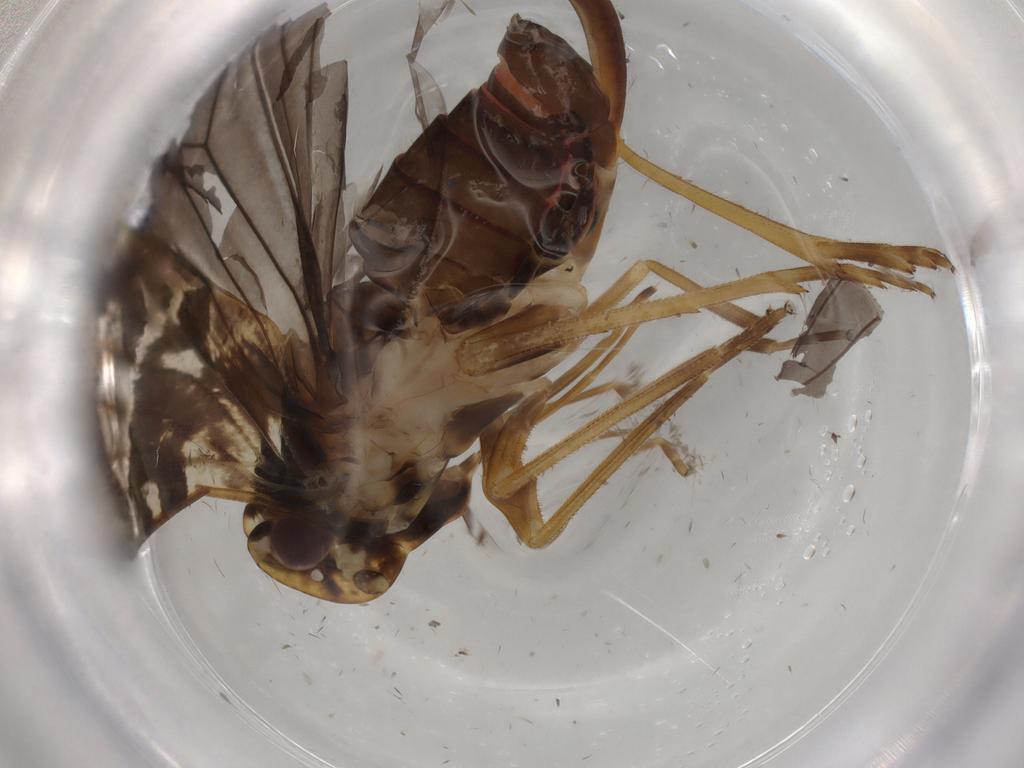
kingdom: Animalia
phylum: Arthropoda
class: Insecta
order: Hemiptera
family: Cixiidae
